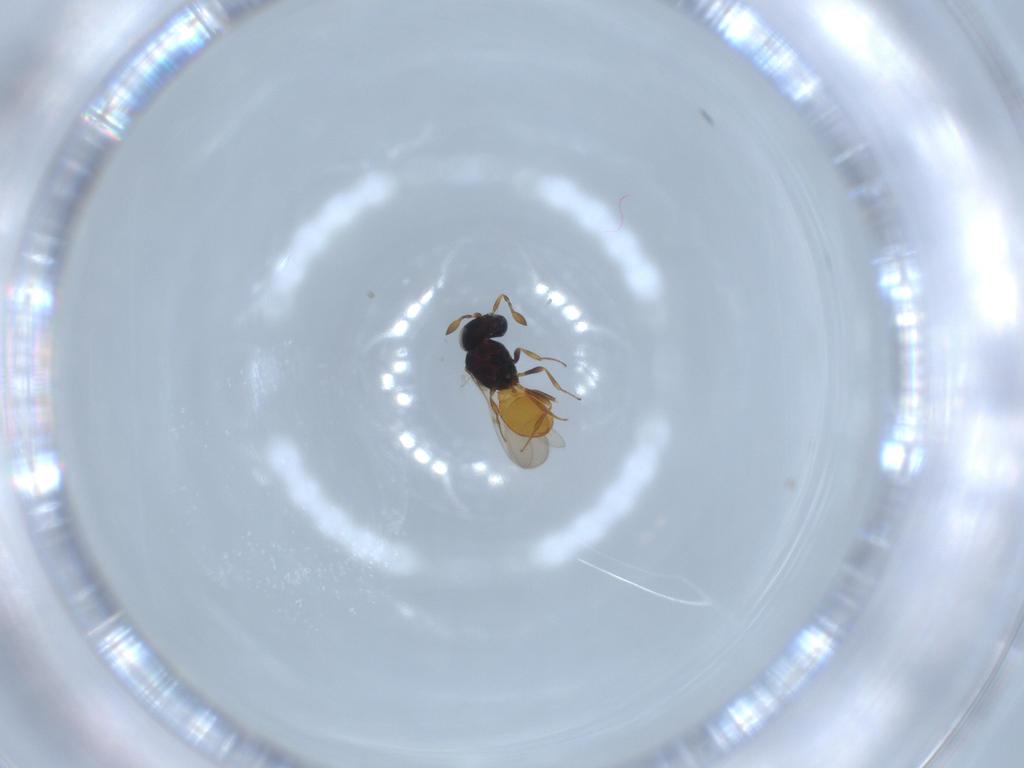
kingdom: Animalia
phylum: Arthropoda
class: Insecta
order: Hymenoptera
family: Scelionidae
